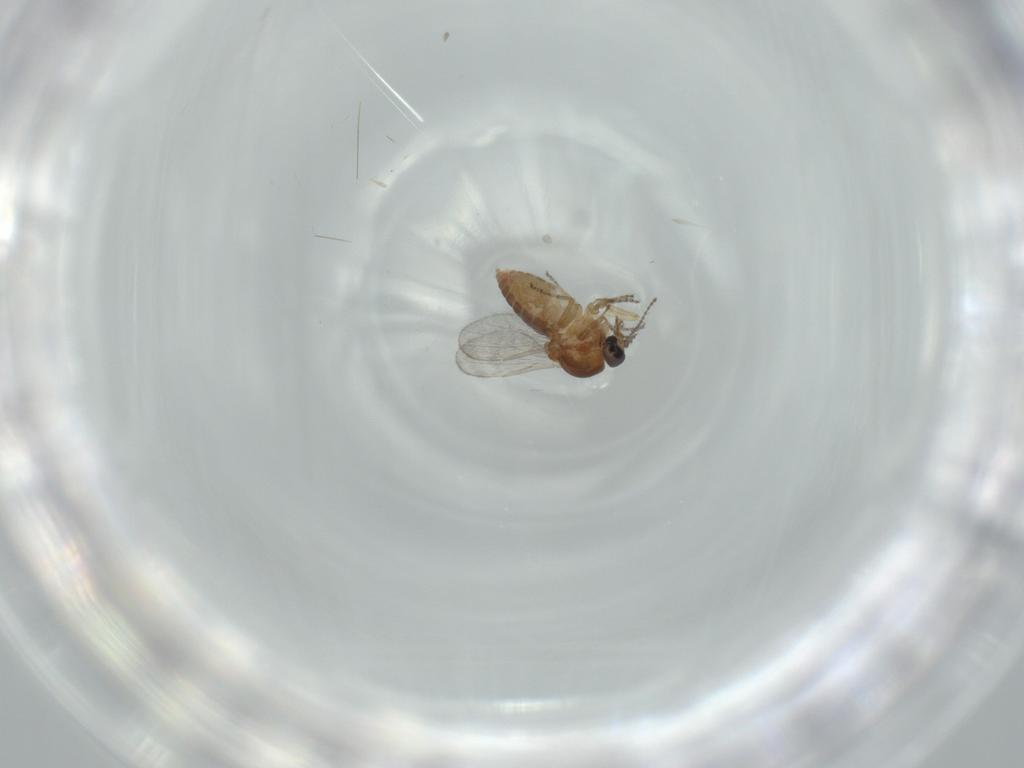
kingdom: Animalia
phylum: Arthropoda
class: Insecta
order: Diptera
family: Ceratopogonidae
